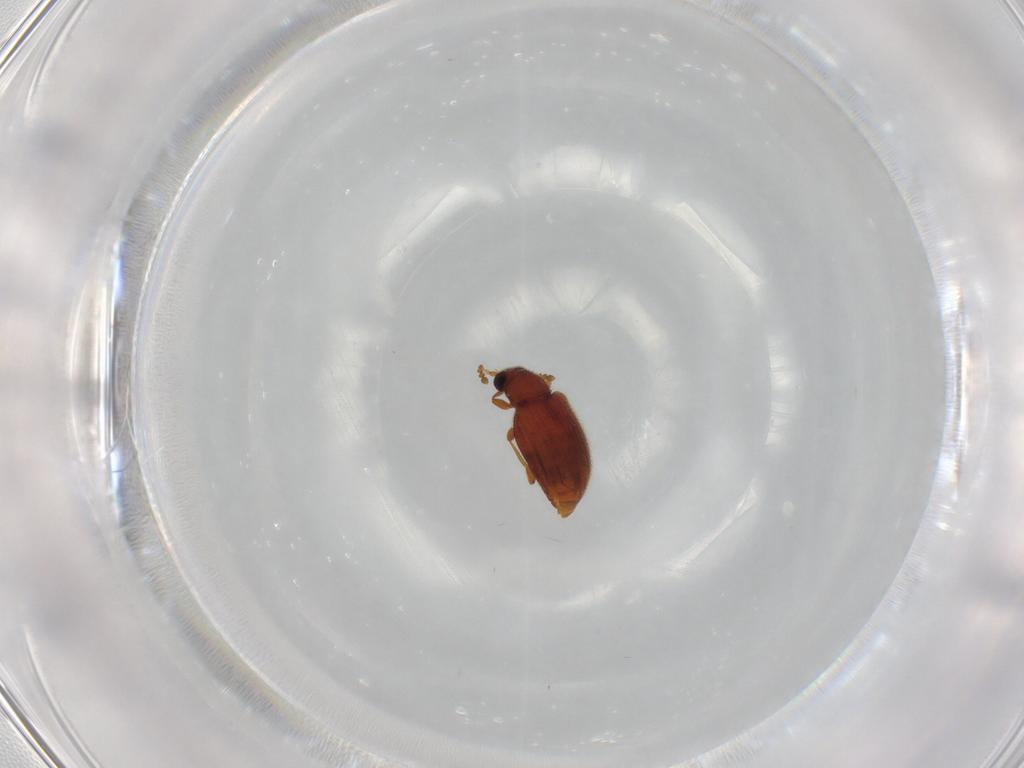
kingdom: Animalia
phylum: Arthropoda
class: Insecta
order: Coleoptera
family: Latridiidae
